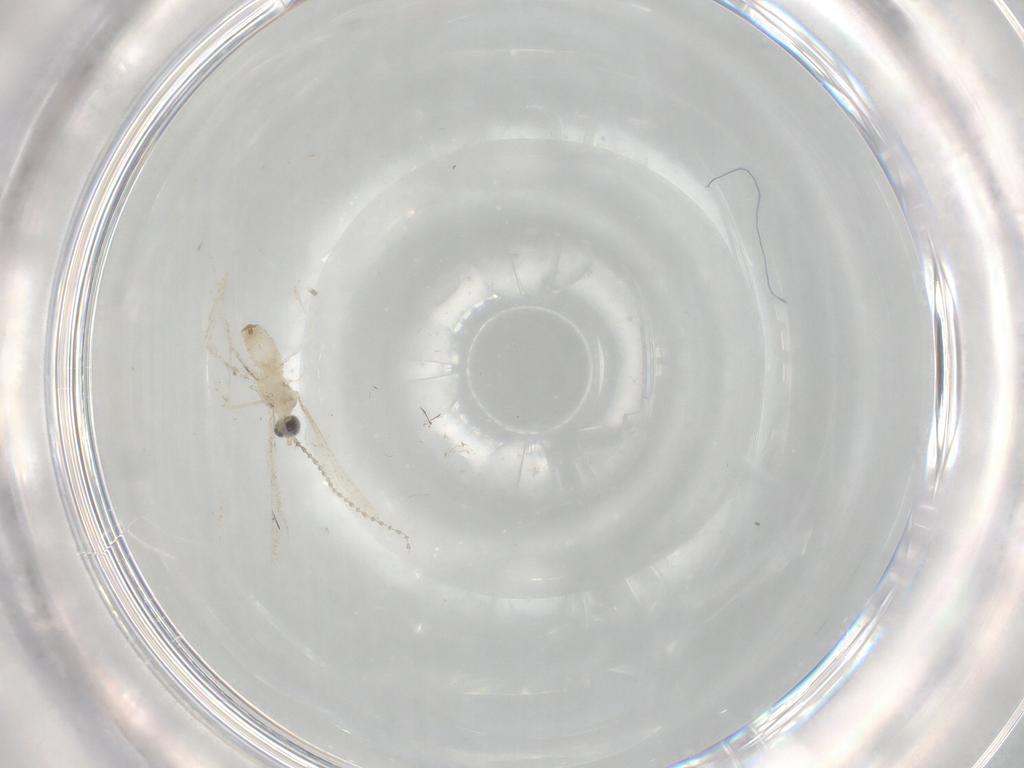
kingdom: Animalia
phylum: Arthropoda
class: Insecta
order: Diptera
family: Cecidomyiidae
